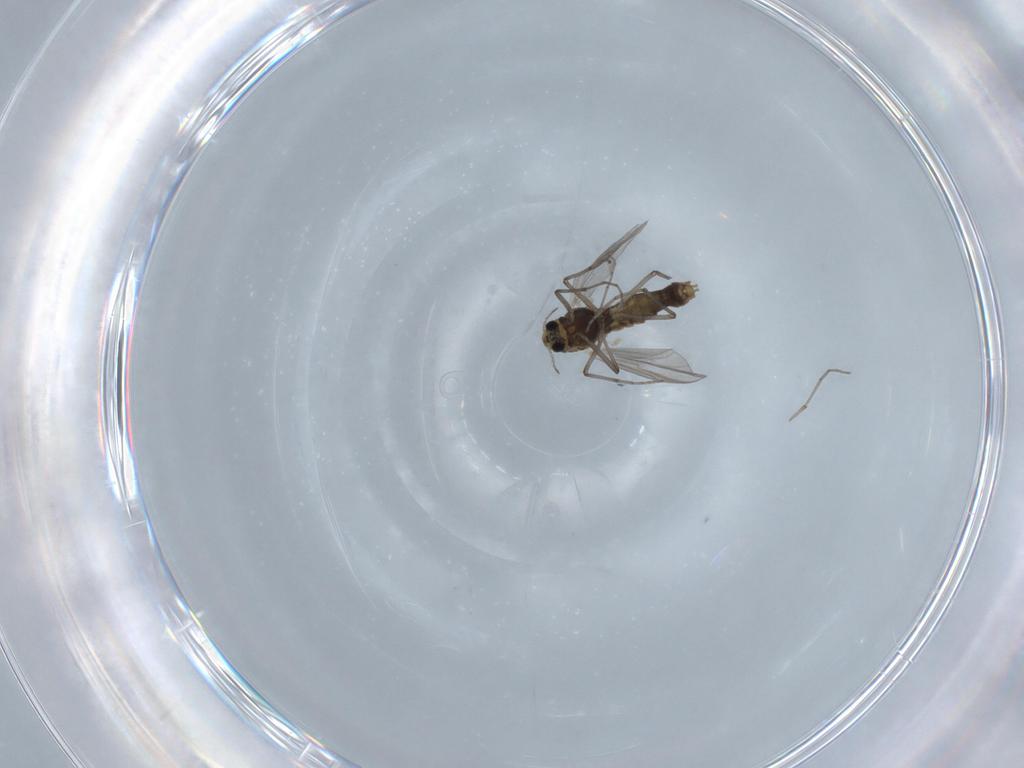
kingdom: Animalia
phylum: Arthropoda
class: Insecta
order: Diptera
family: Chironomidae
